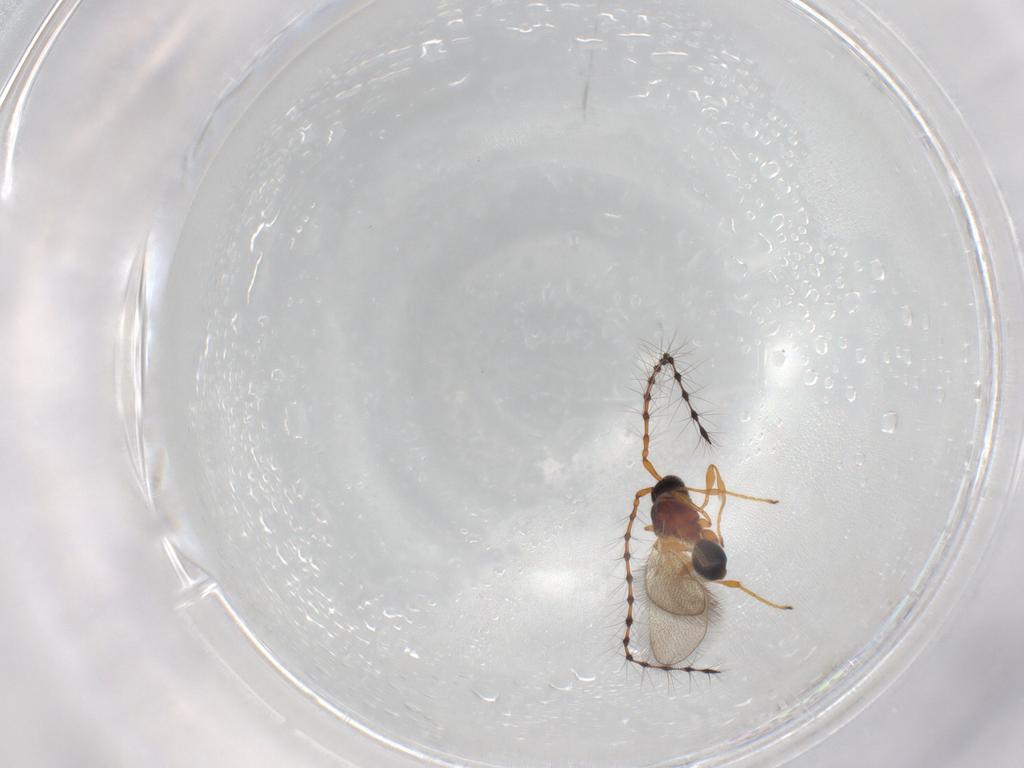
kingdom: Animalia
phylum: Arthropoda
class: Insecta
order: Hymenoptera
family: Diapriidae
